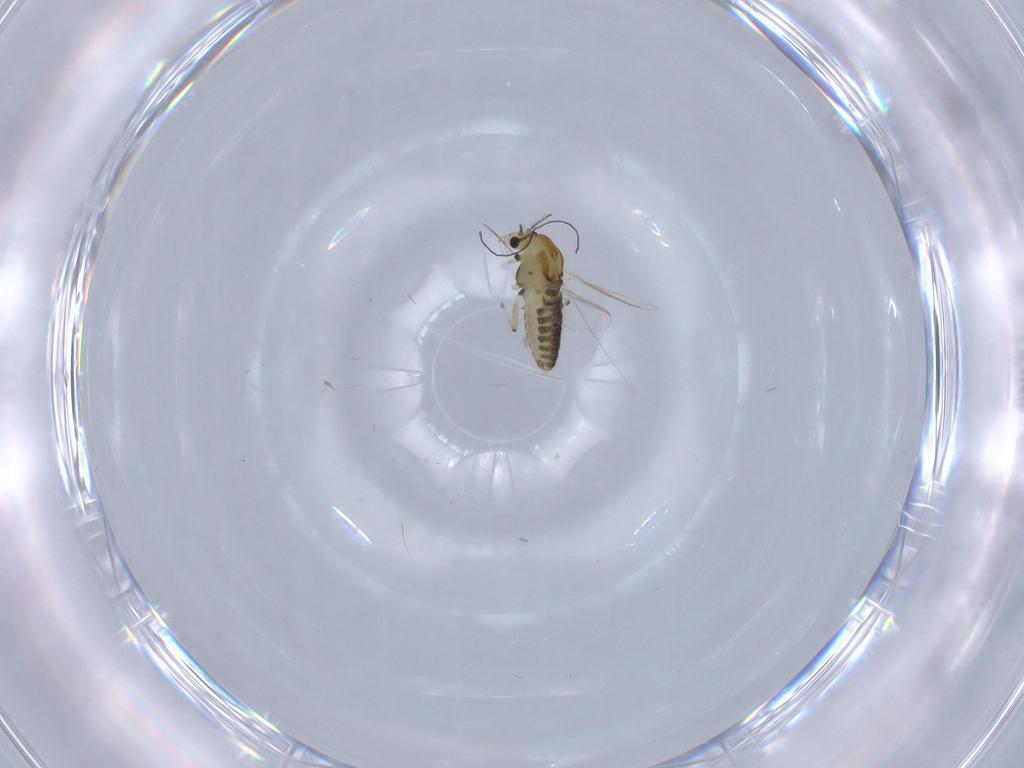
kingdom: Animalia
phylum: Arthropoda
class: Insecta
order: Diptera
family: Chironomidae
